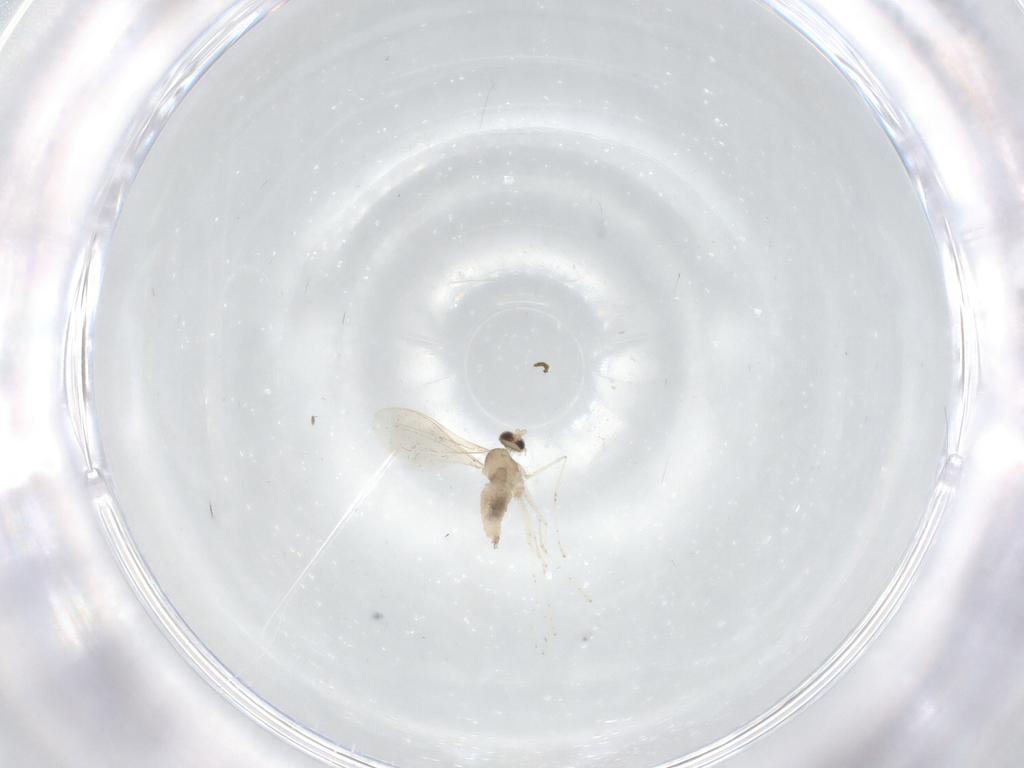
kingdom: Animalia
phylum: Arthropoda
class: Insecta
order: Diptera
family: Cecidomyiidae
